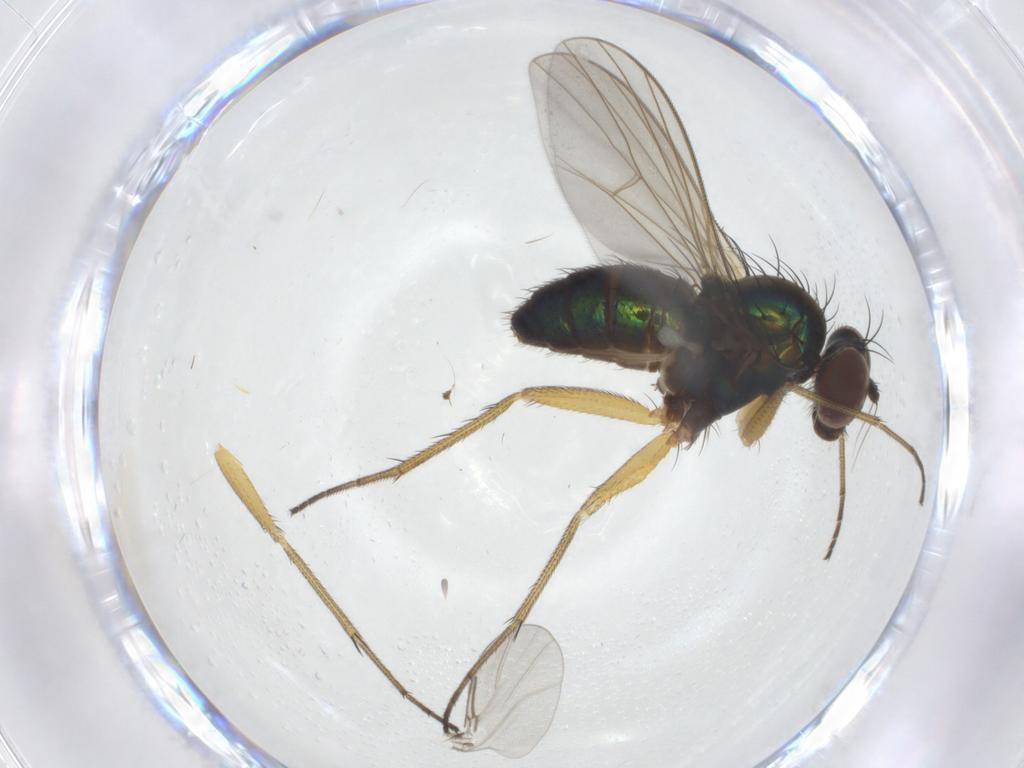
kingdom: Animalia
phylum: Arthropoda
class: Insecta
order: Diptera
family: Dolichopodidae
